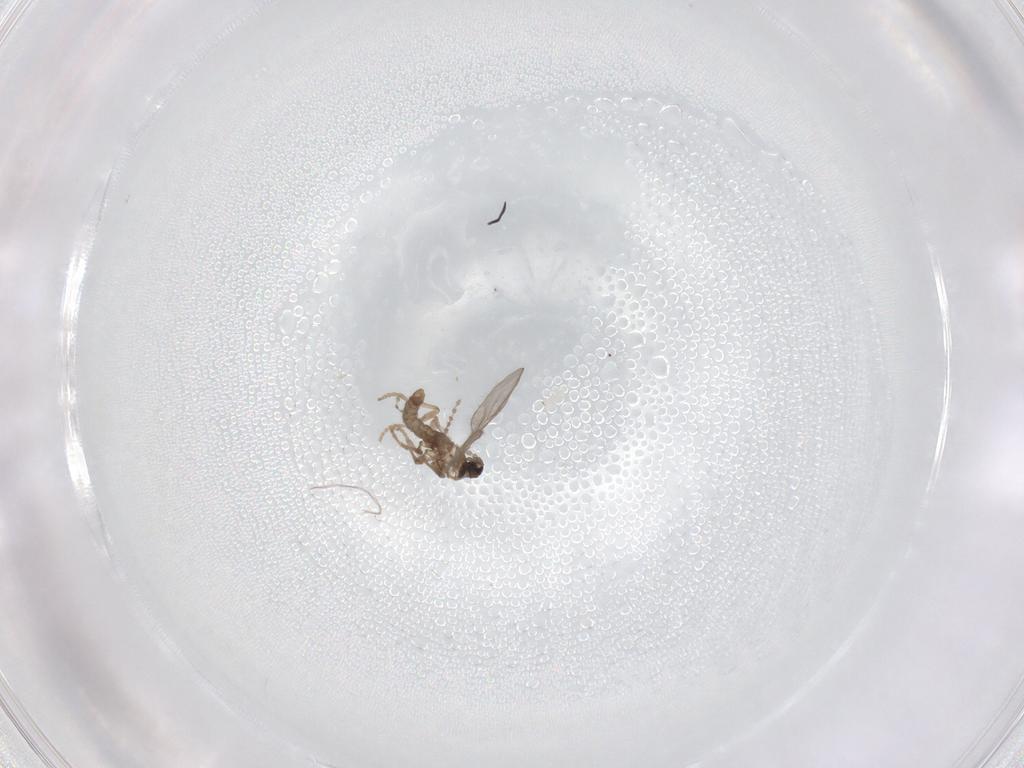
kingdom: Animalia
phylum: Arthropoda
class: Insecta
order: Diptera
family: Cecidomyiidae
